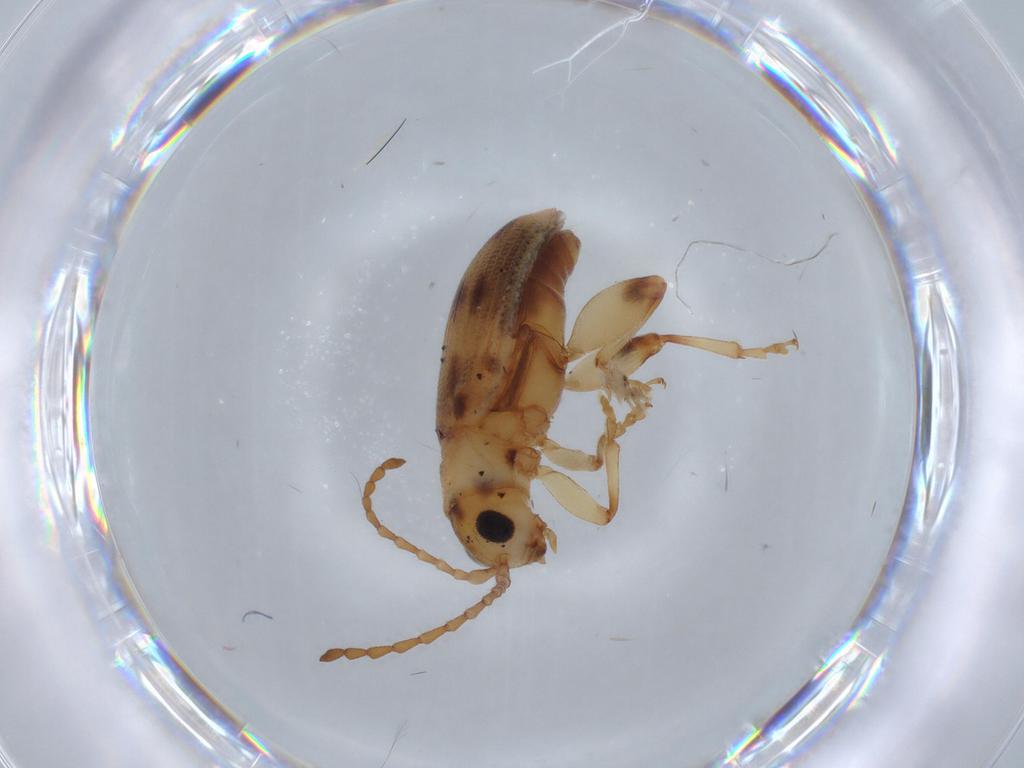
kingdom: Animalia
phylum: Arthropoda
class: Insecta
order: Coleoptera
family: Chrysomelidae
